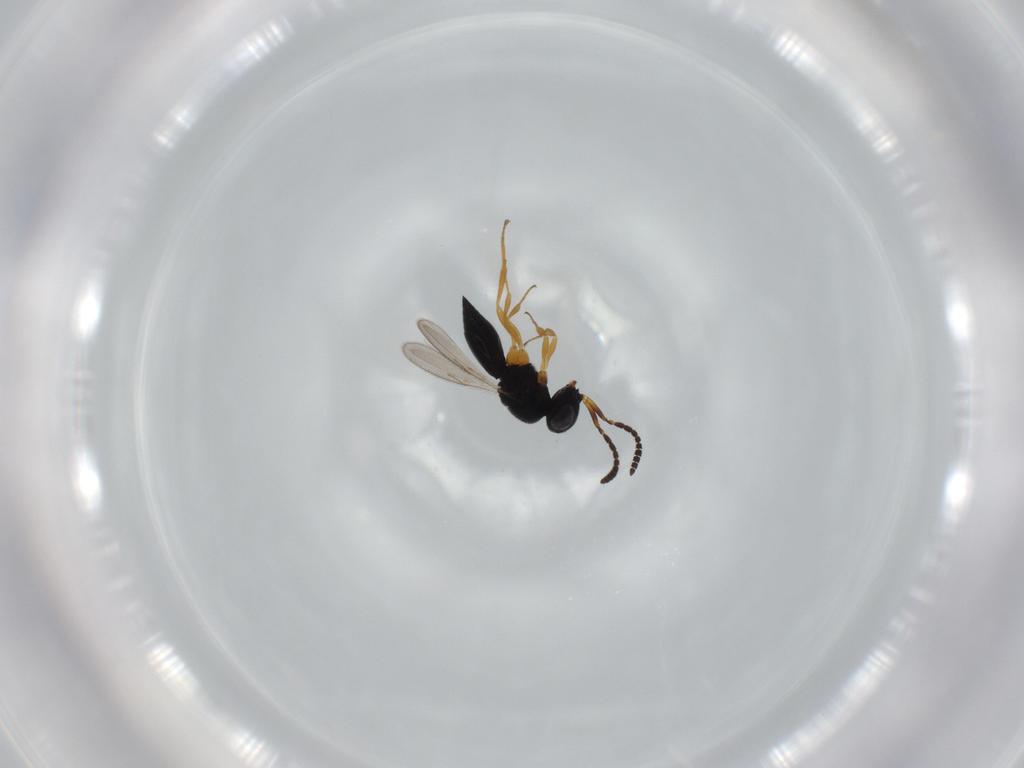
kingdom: Animalia
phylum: Arthropoda
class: Insecta
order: Hymenoptera
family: Scelionidae
